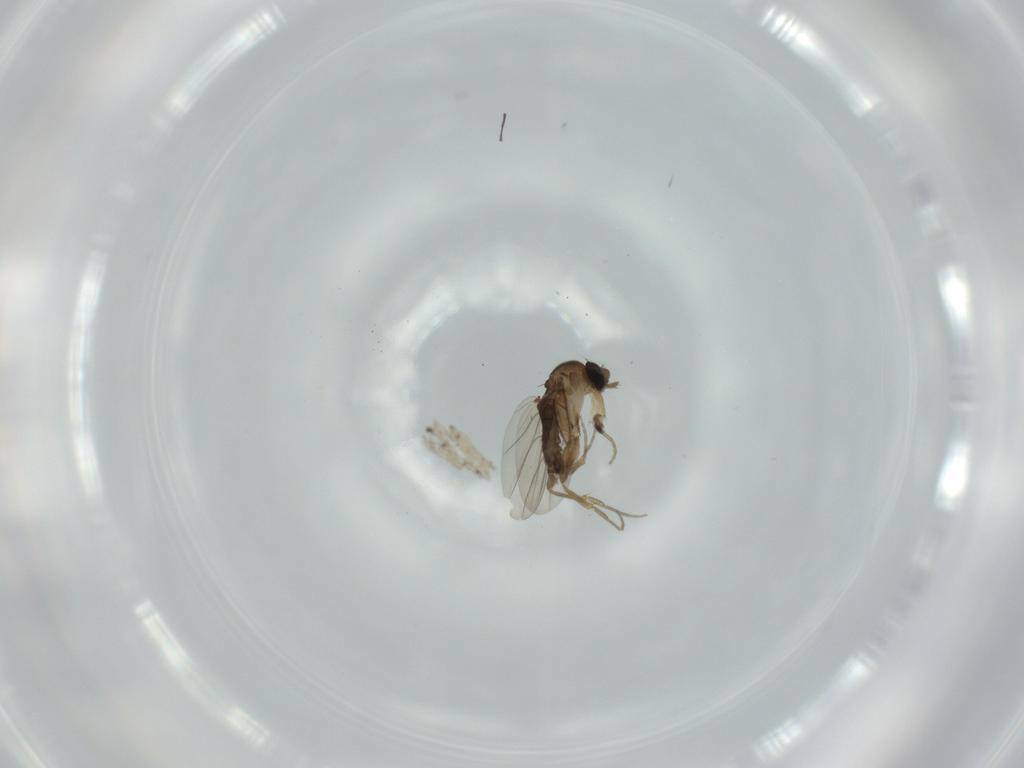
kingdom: Animalia
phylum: Arthropoda
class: Insecta
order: Diptera
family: Phoridae
